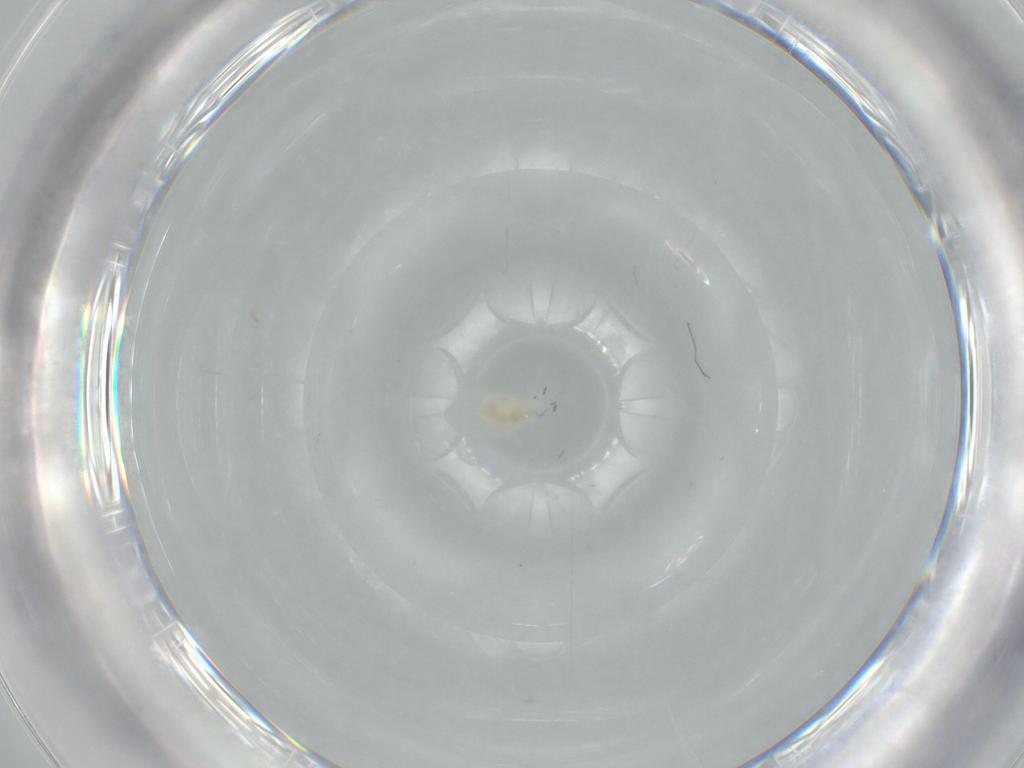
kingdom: Animalia
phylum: Arthropoda
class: Arachnida
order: Trombidiformes
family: Eupodidae
